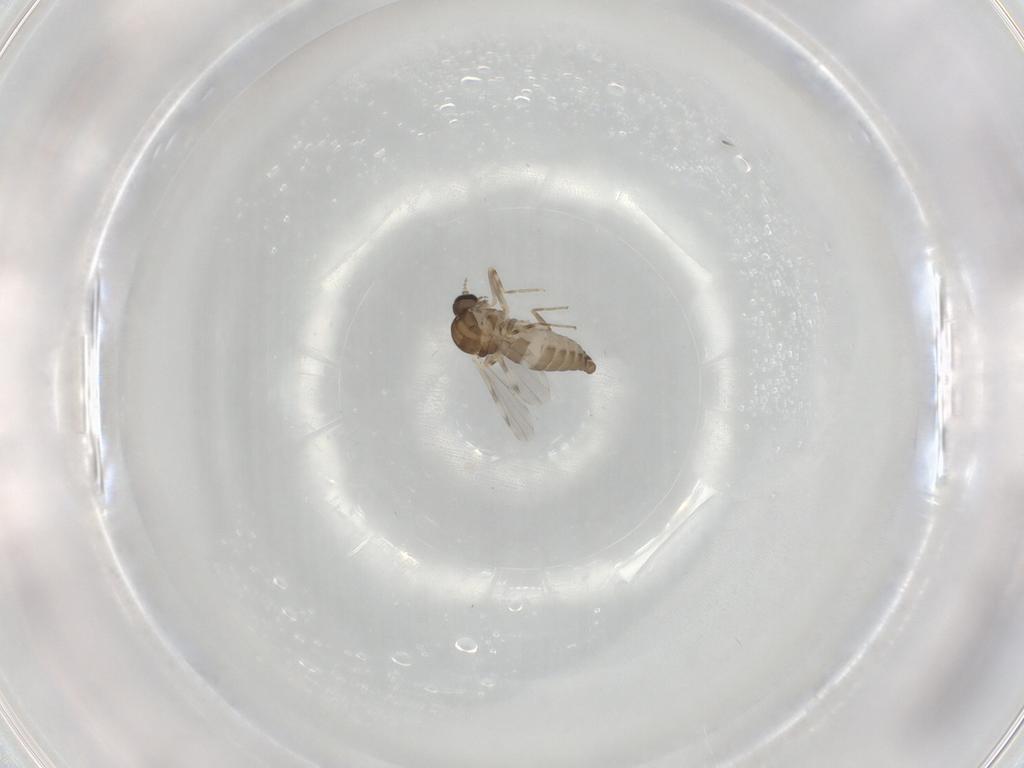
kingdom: Animalia
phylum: Arthropoda
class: Insecta
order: Diptera
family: Ceratopogonidae
